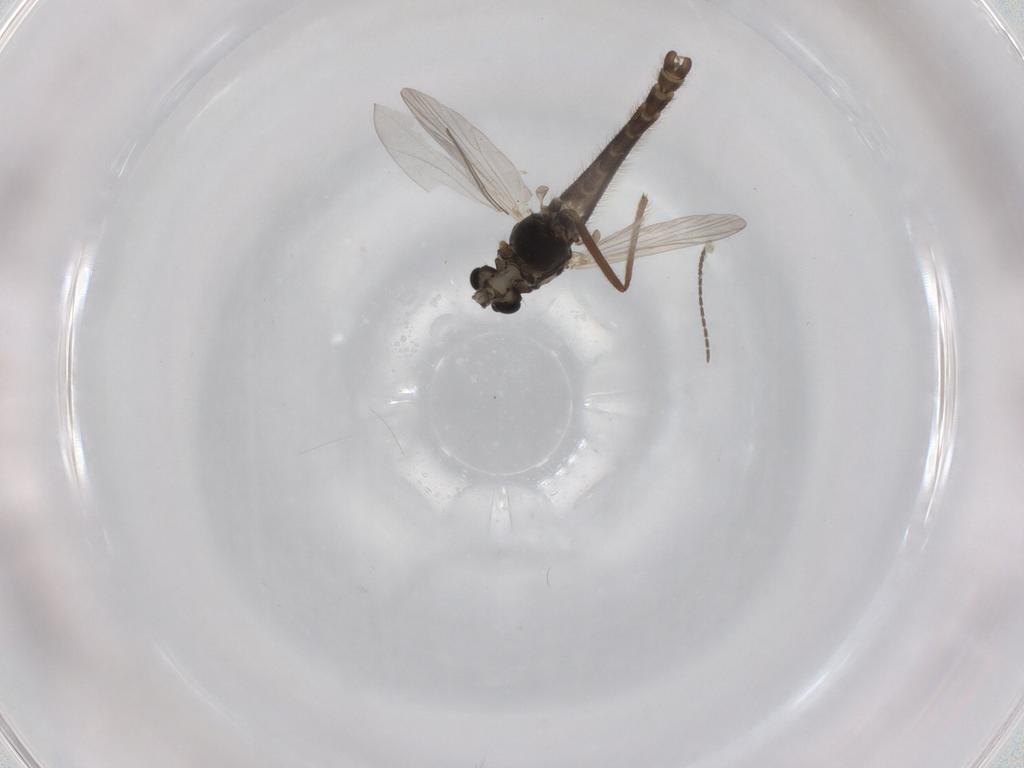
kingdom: Animalia
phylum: Arthropoda
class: Insecta
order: Diptera
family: Chironomidae
